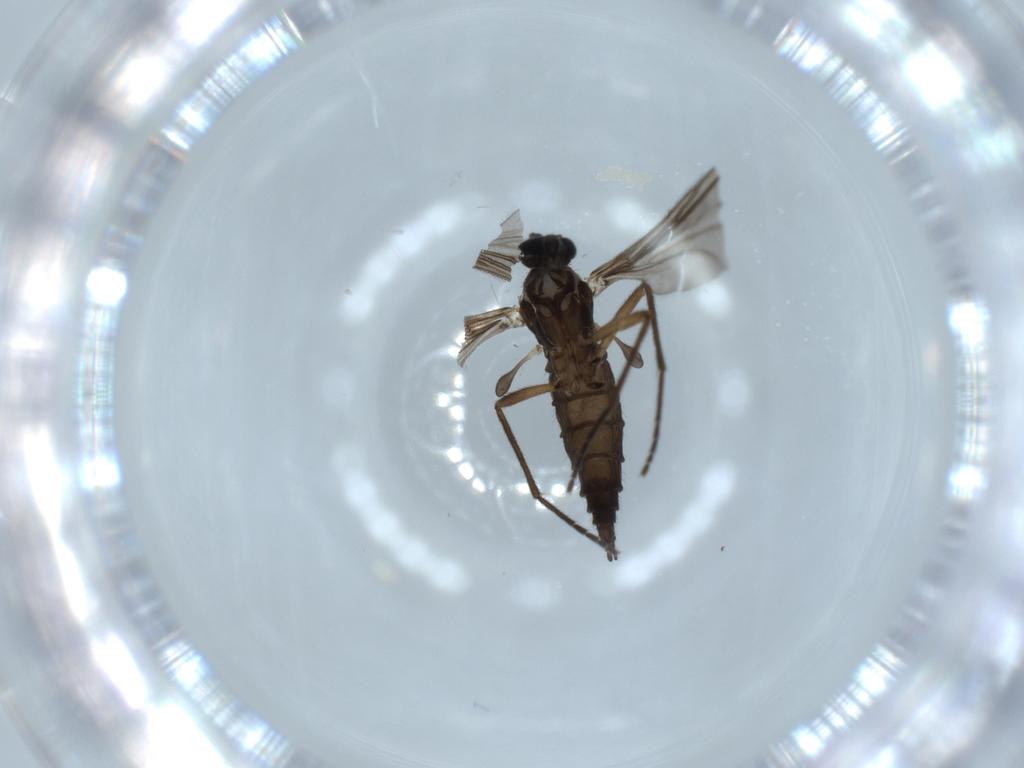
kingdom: Animalia
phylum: Arthropoda
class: Insecta
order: Diptera
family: Sciaridae
